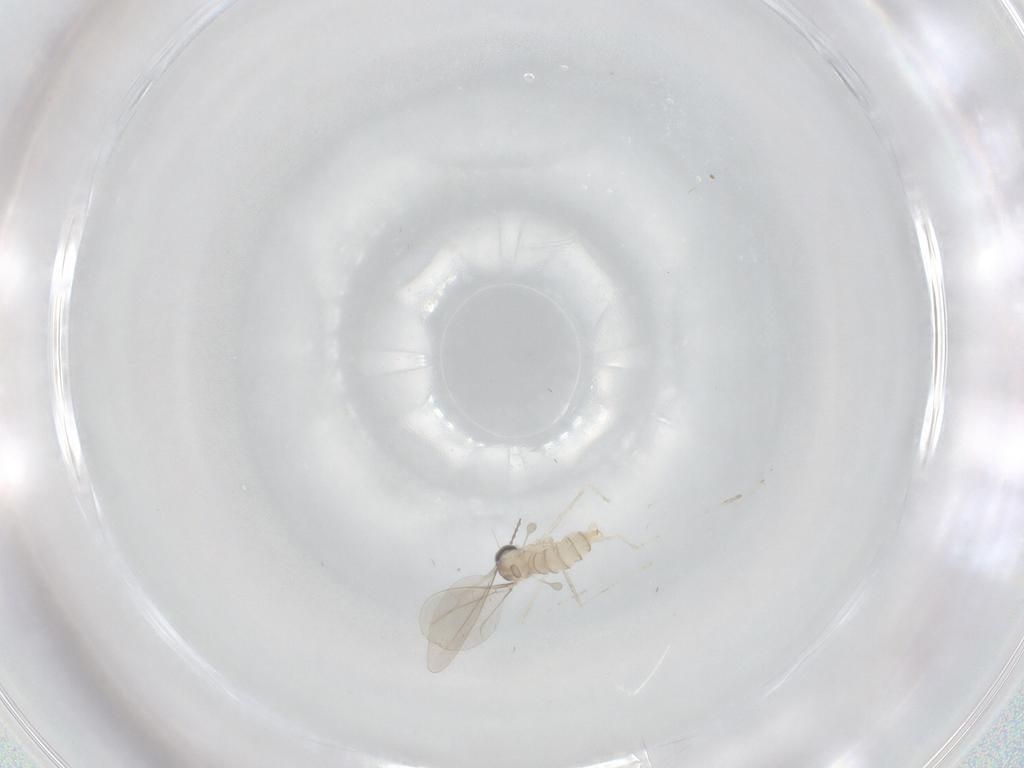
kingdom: Animalia
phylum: Arthropoda
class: Insecta
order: Diptera
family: Cecidomyiidae
